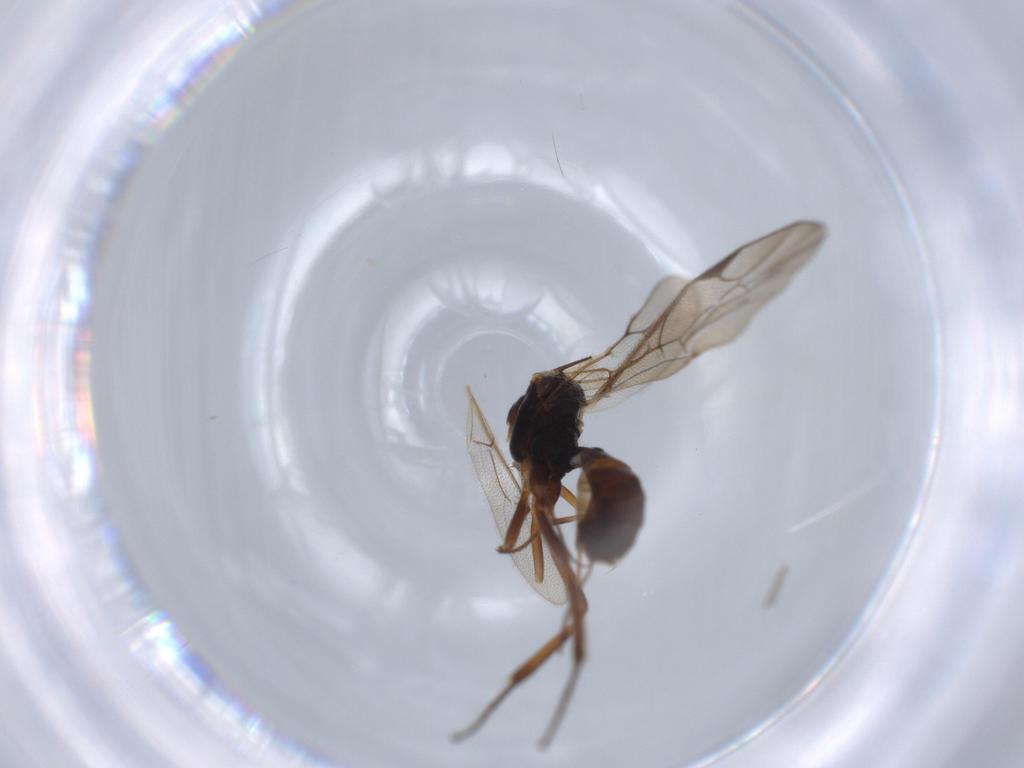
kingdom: Animalia
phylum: Arthropoda
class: Insecta
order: Hymenoptera
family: Ichneumonidae
